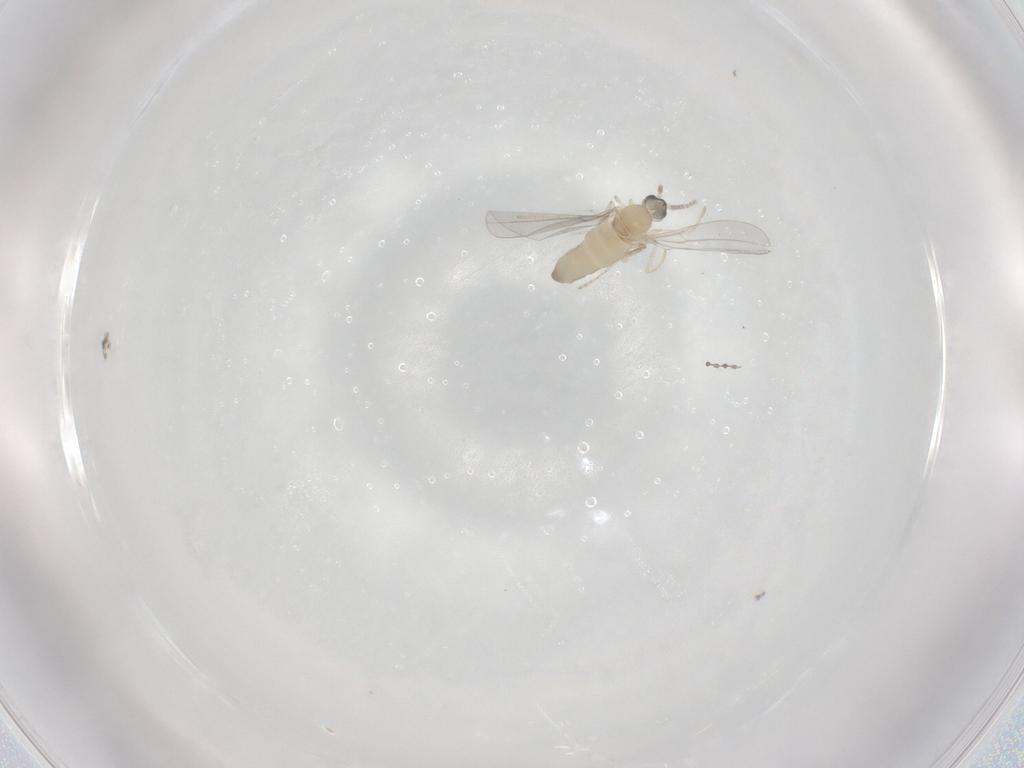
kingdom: Animalia
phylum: Arthropoda
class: Insecta
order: Diptera
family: Cecidomyiidae
